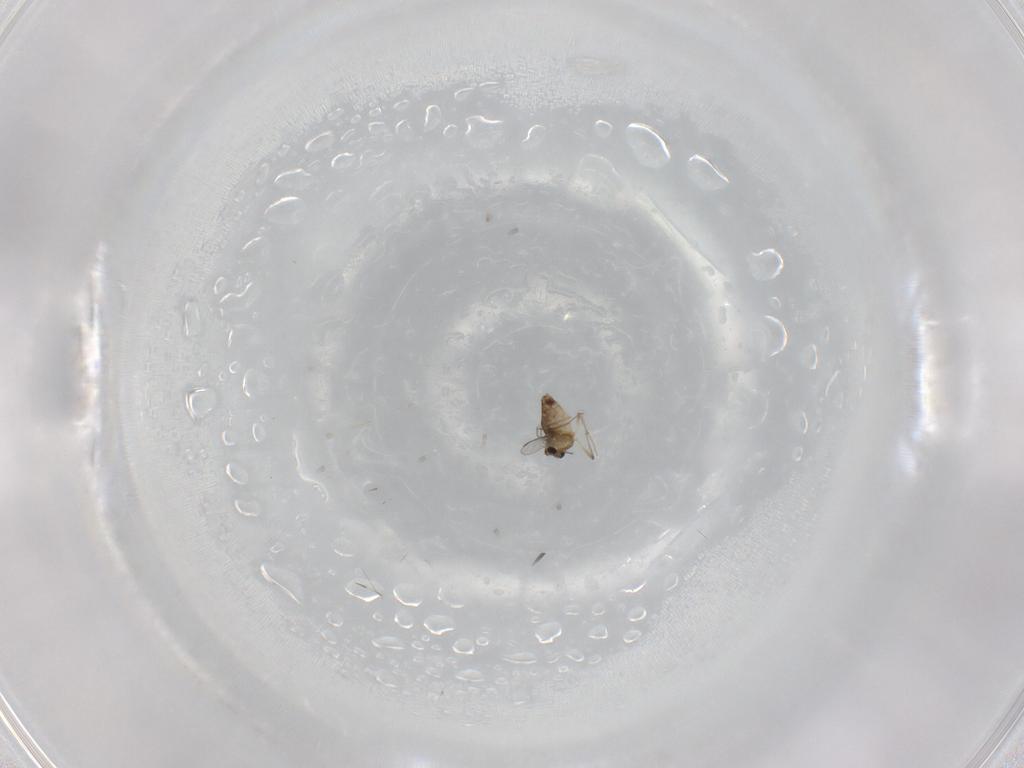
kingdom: Animalia
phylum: Arthropoda
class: Insecta
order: Diptera
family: Chironomidae
